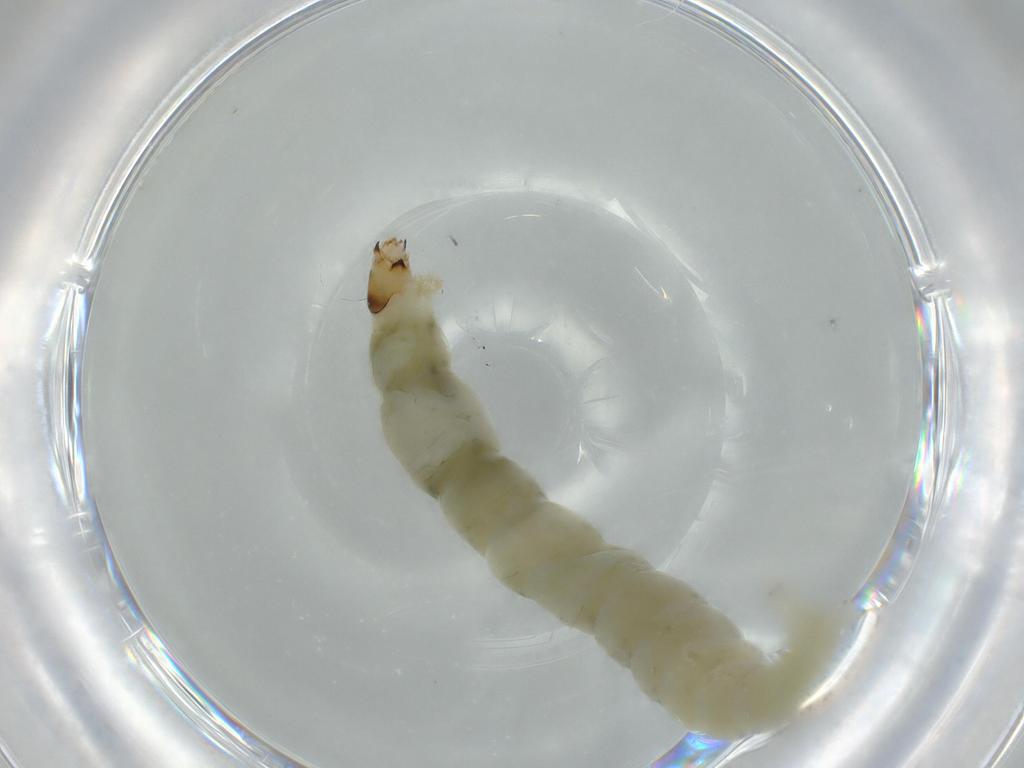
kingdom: Animalia
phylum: Arthropoda
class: Insecta
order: Diptera
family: Chironomidae
